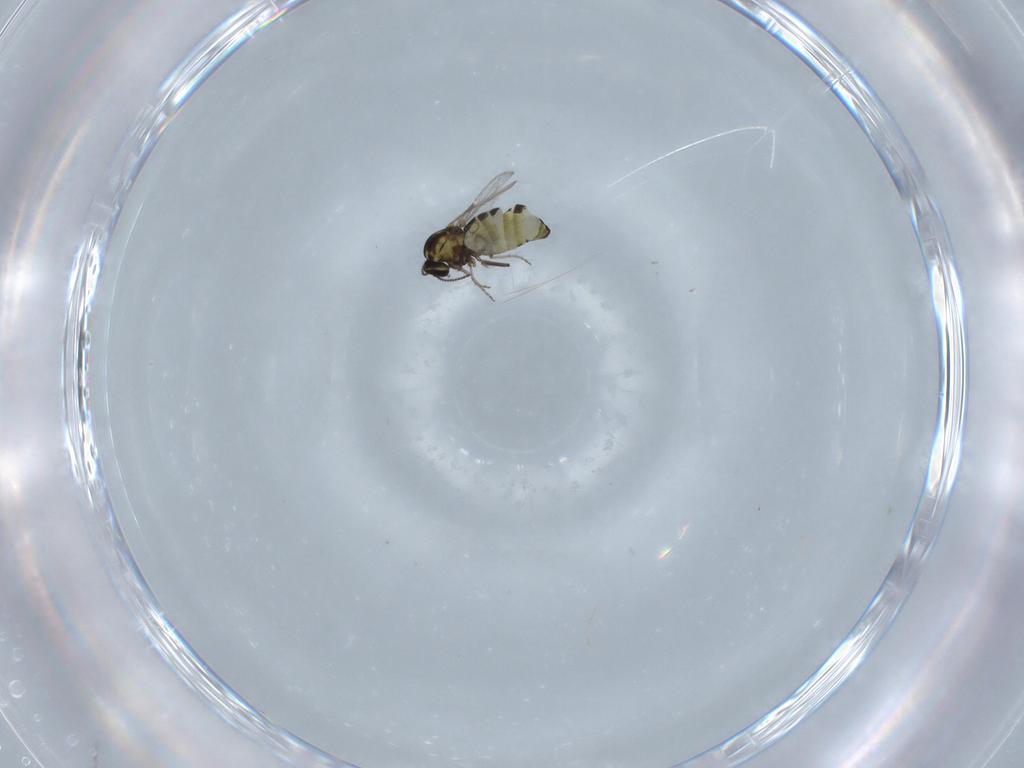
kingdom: Animalia
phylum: Arthropoda
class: Insecta
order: Diptera
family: Ceratopogonidae
